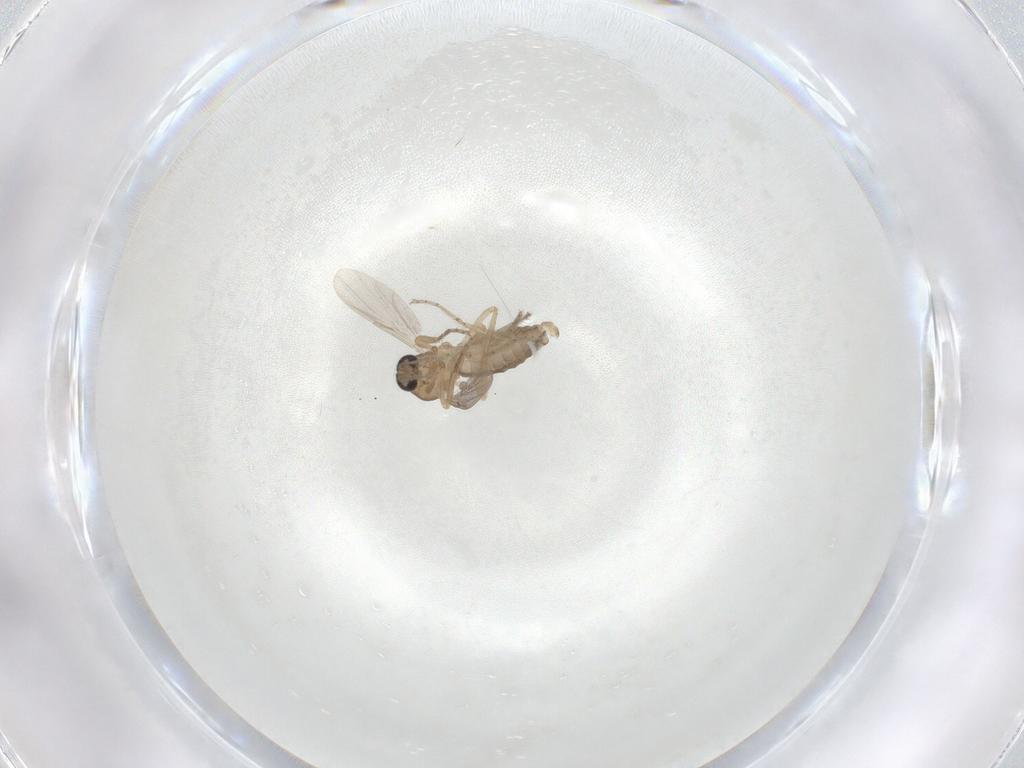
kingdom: Animalia
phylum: Arthropoda
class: Insecta
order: Diptera
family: Ceratopogonidae
